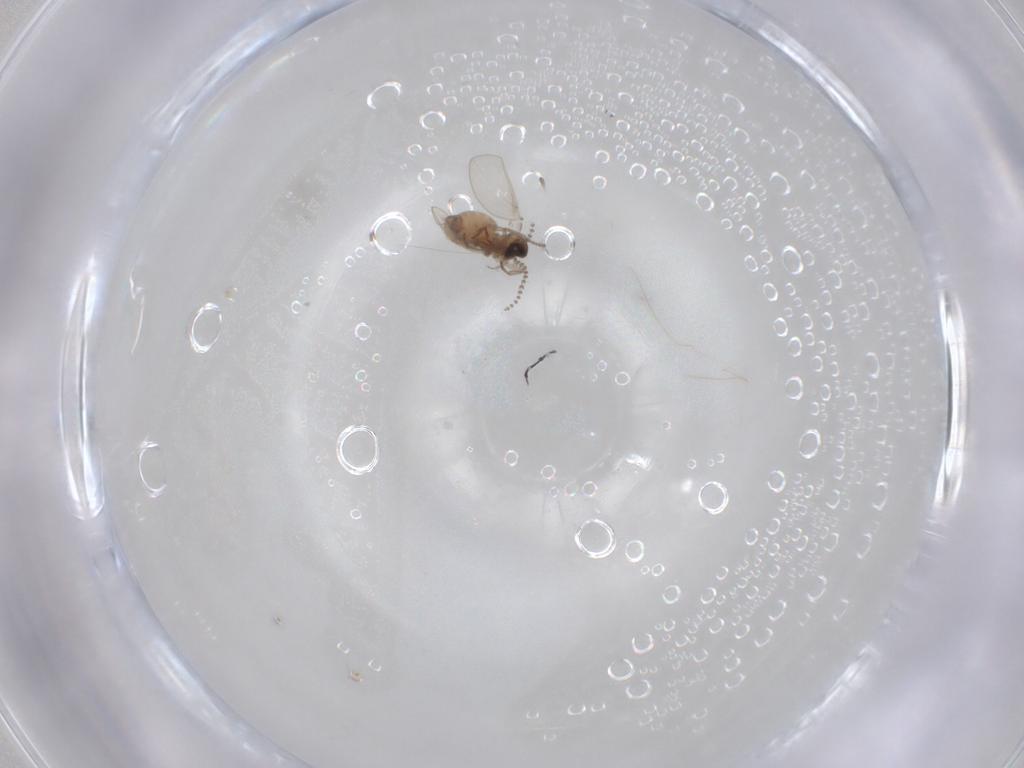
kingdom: Animalia
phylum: Arthropoda
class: Insecta
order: Diptera
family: Psychodidae
